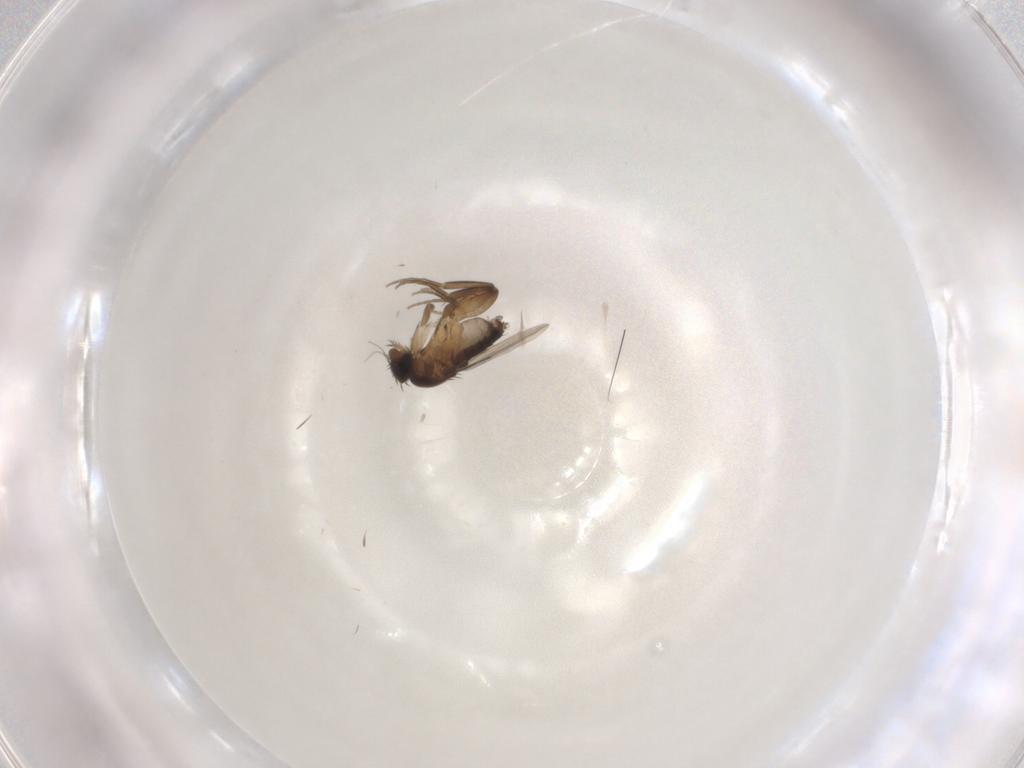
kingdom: Animalia
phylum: Arthropoda
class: Insecta
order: Diptera
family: Phoridae
